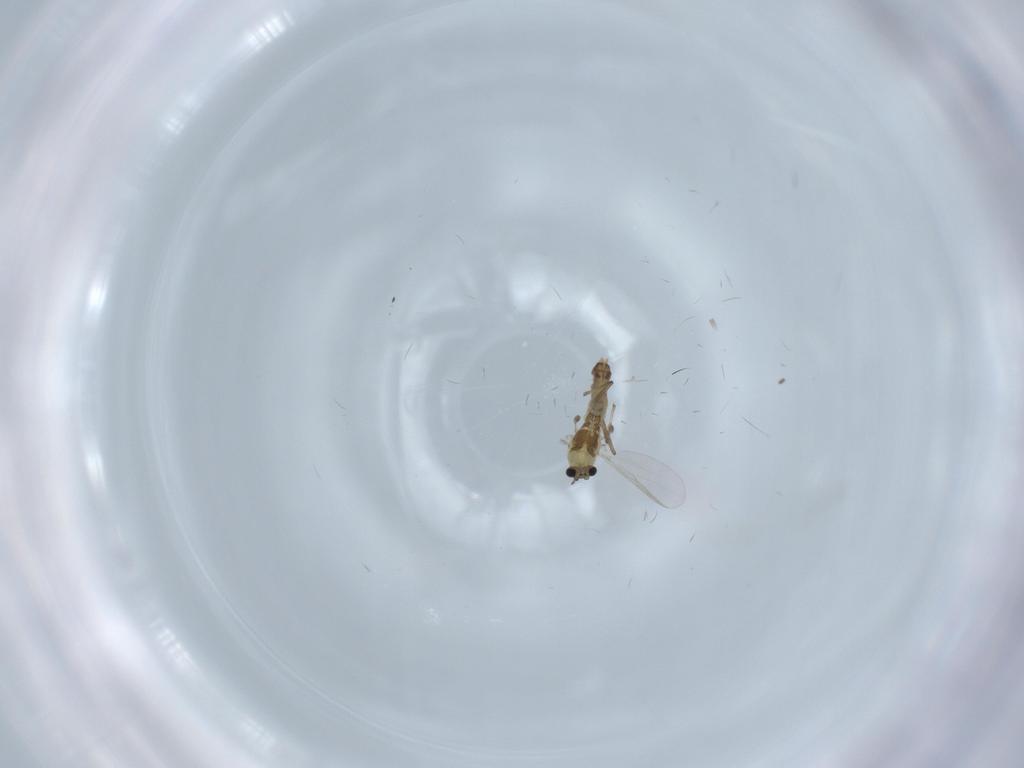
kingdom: Animalia
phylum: Arthropoda
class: Insecta
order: Diptera
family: Chironomidae
